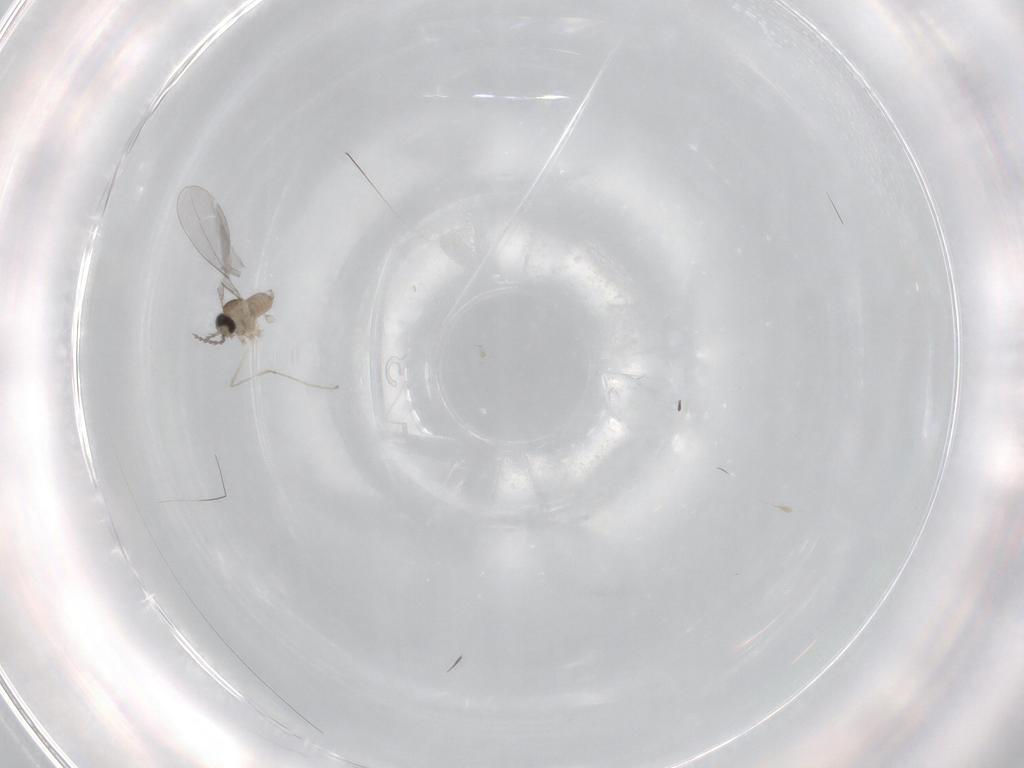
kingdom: Animalia
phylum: Arthropoda
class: Insecta
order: Diptera
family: Cecidomyiidae
